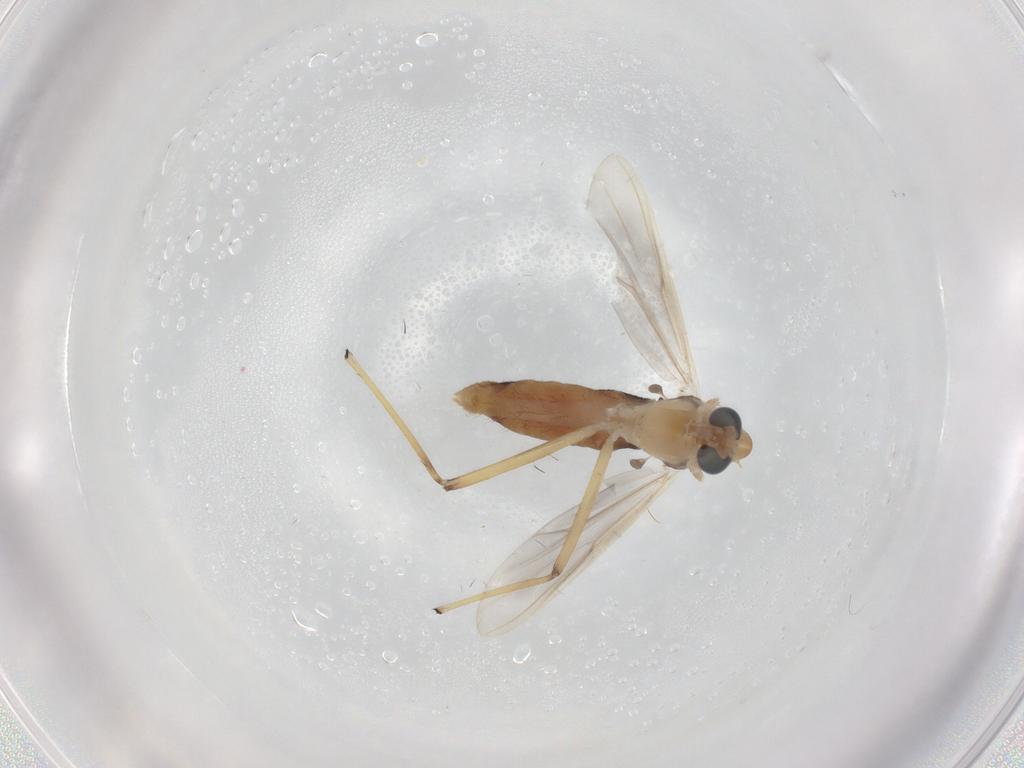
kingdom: Animalia
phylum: Arthropoda
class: Insecta
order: Diptera
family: Chironomidae
